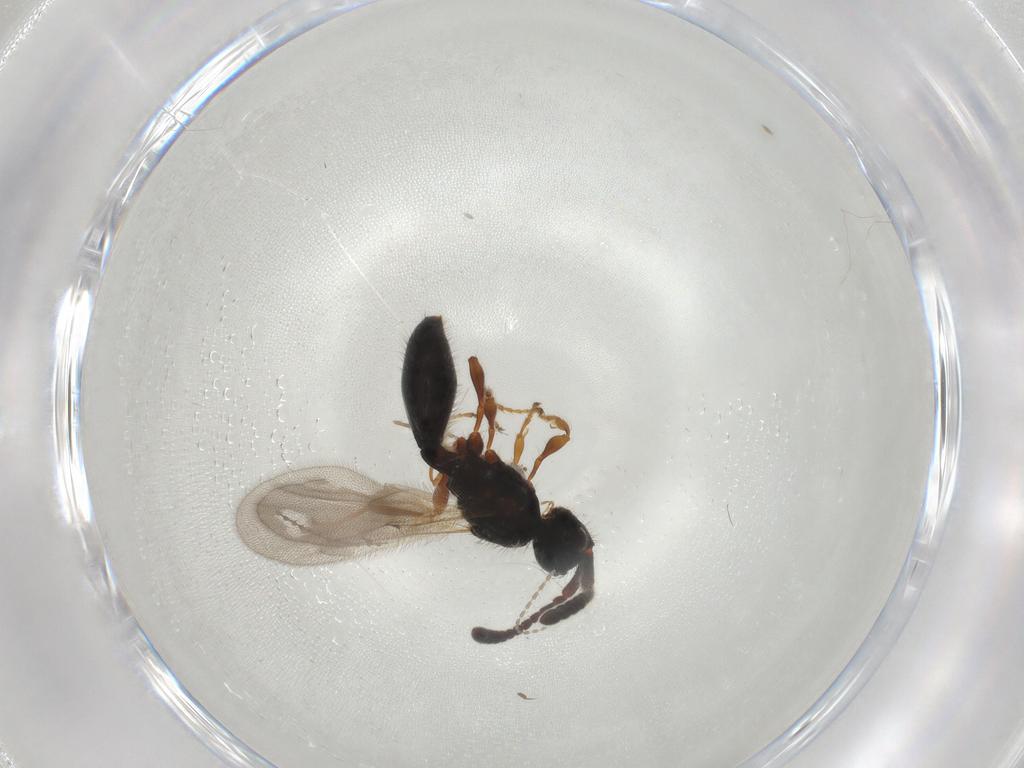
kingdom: Animalia
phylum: Arthropoda
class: Insecta
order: Hymenoptera
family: Diapriidae
